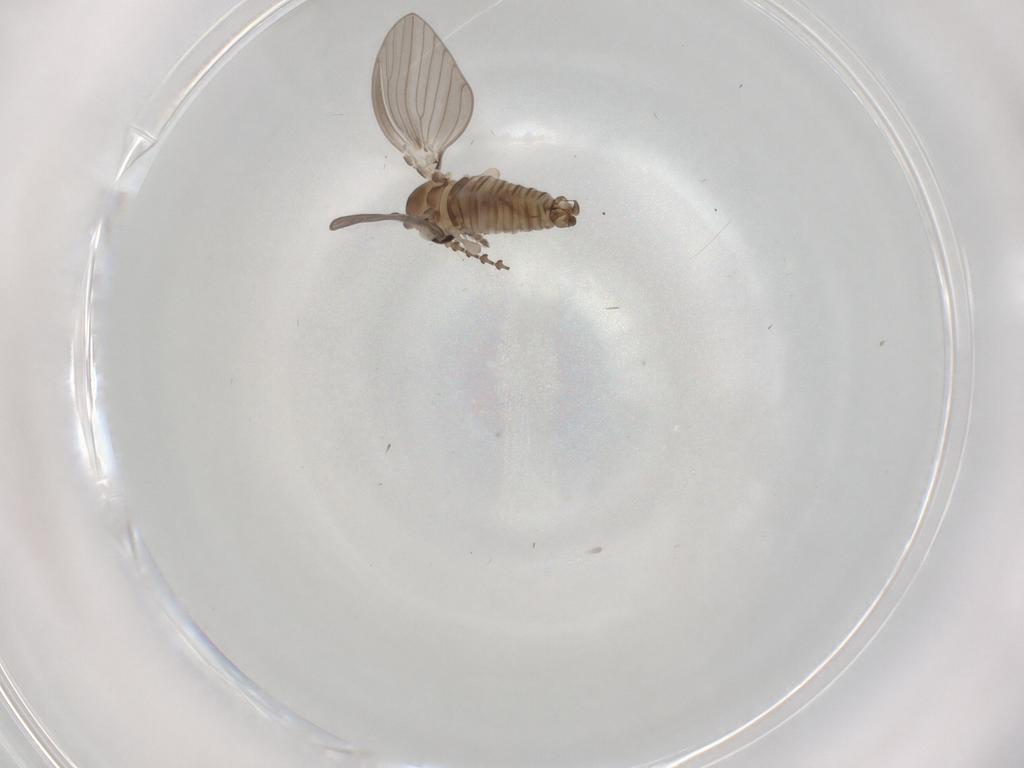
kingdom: Animalia
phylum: Arthropoda
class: Insecta
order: Diptera
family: Psychodidae
